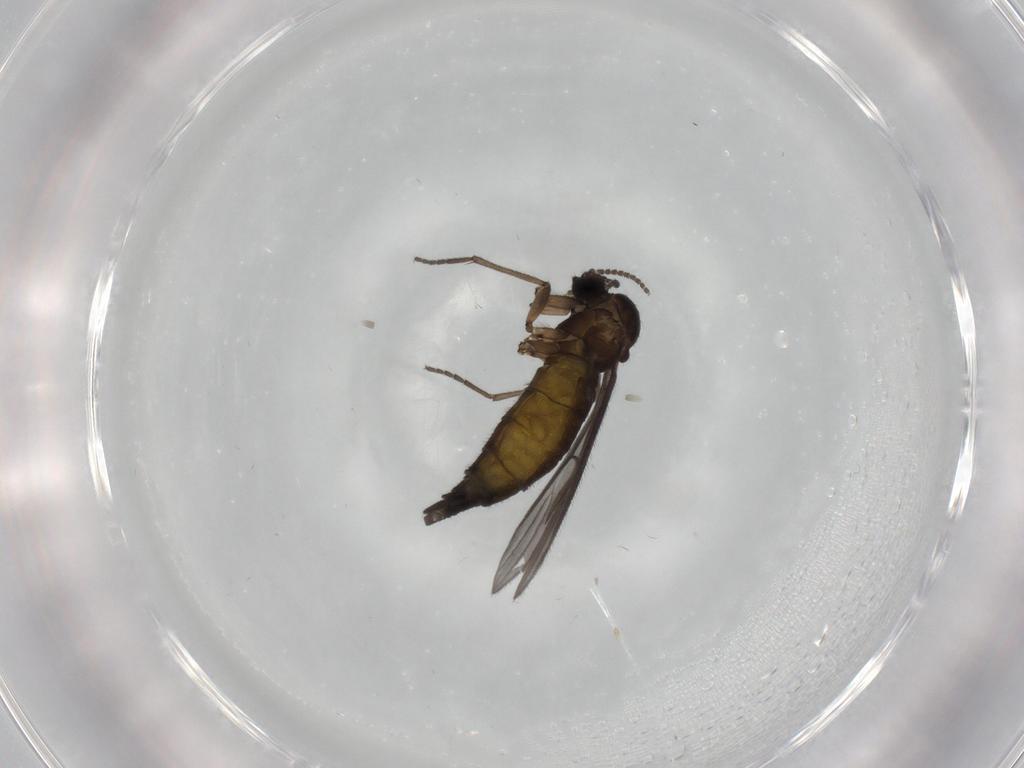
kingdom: Animalia
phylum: Arthropoda
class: Insecta
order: Diptera
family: Sciaridae
